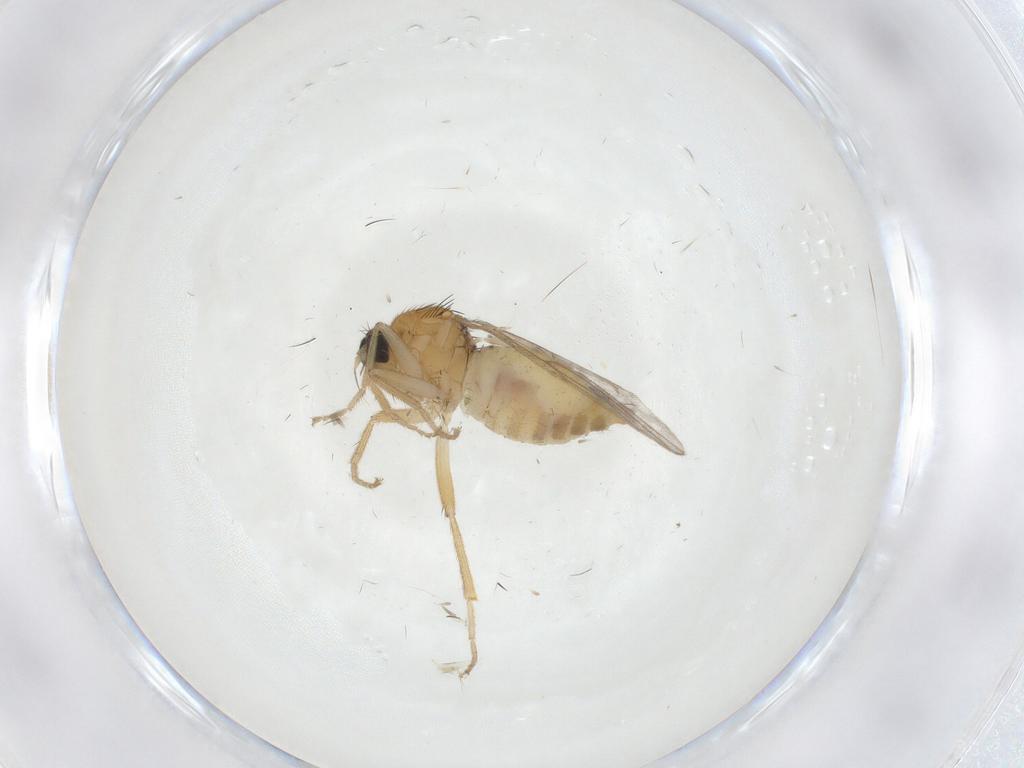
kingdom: Animalia
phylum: Arthropoda
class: Insecta
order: Diptera
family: Hybotidae
